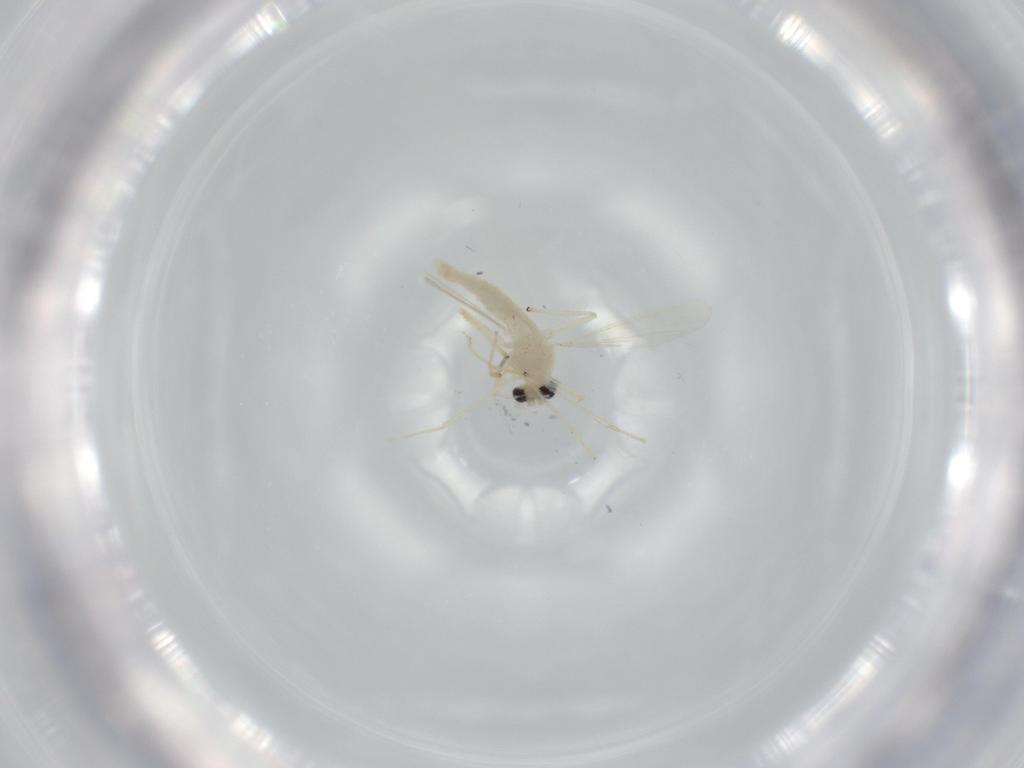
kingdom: Animalia
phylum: Arthropoda
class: Insecta
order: Diptera
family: Chironomidae
